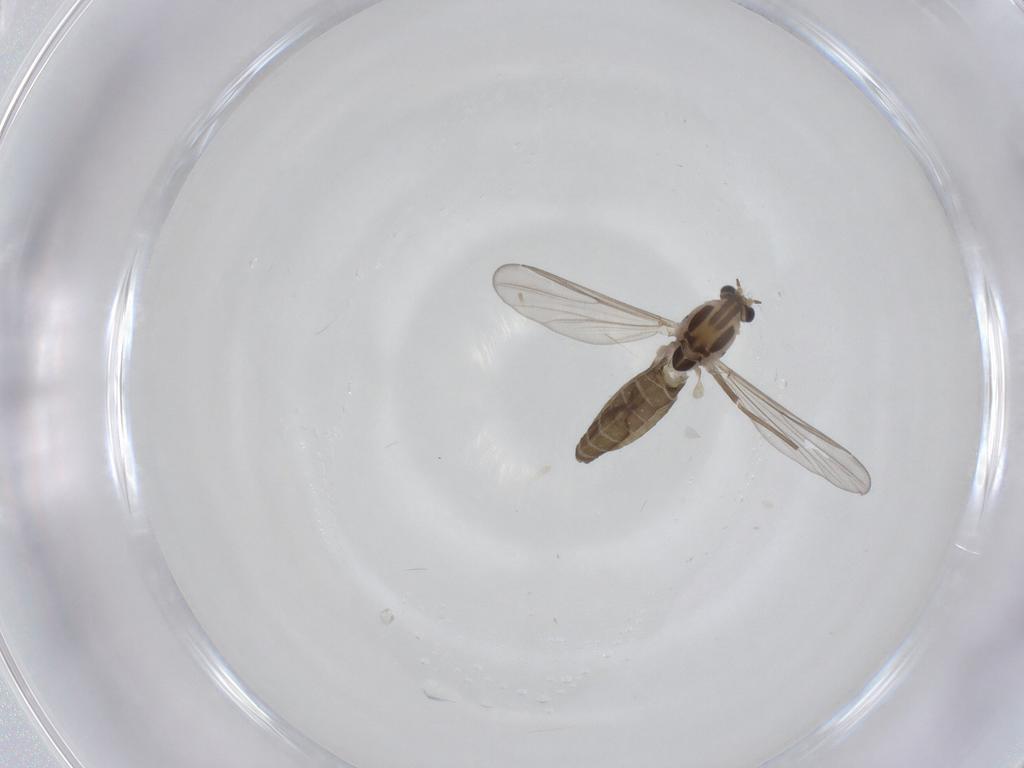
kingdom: Animalia
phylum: Arthropoda
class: Insecta
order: Diptera
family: Chironomidae
